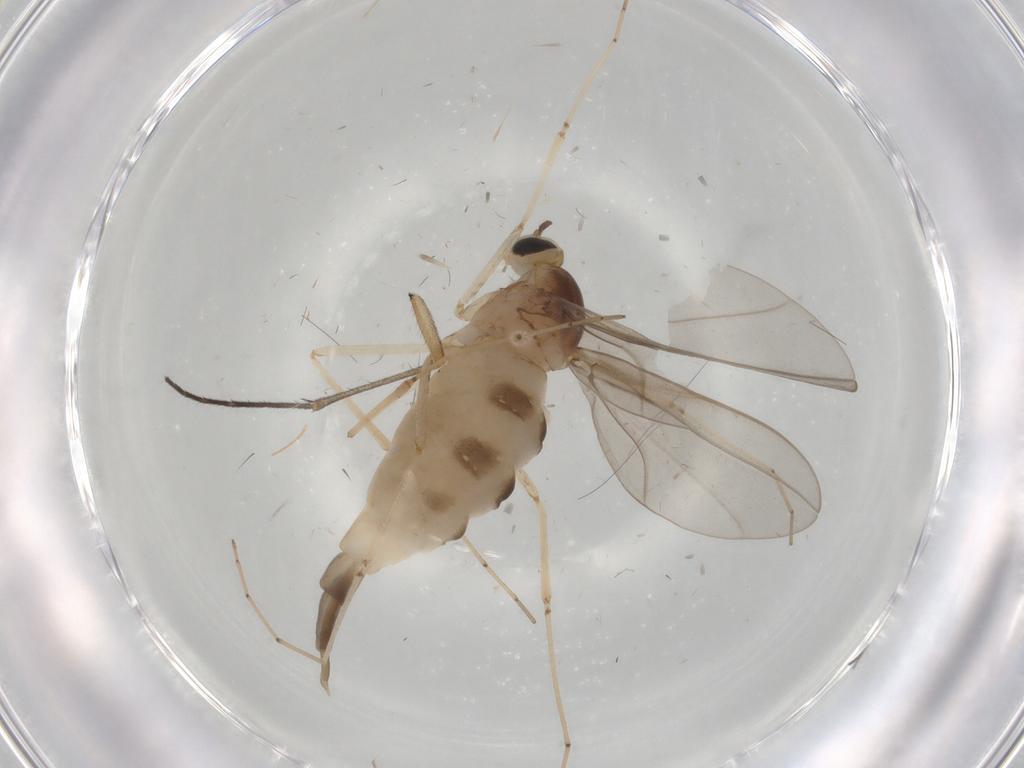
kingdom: Animalia
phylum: Arthropoda
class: Insecta
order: Diptera
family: Cecidomyiidae
